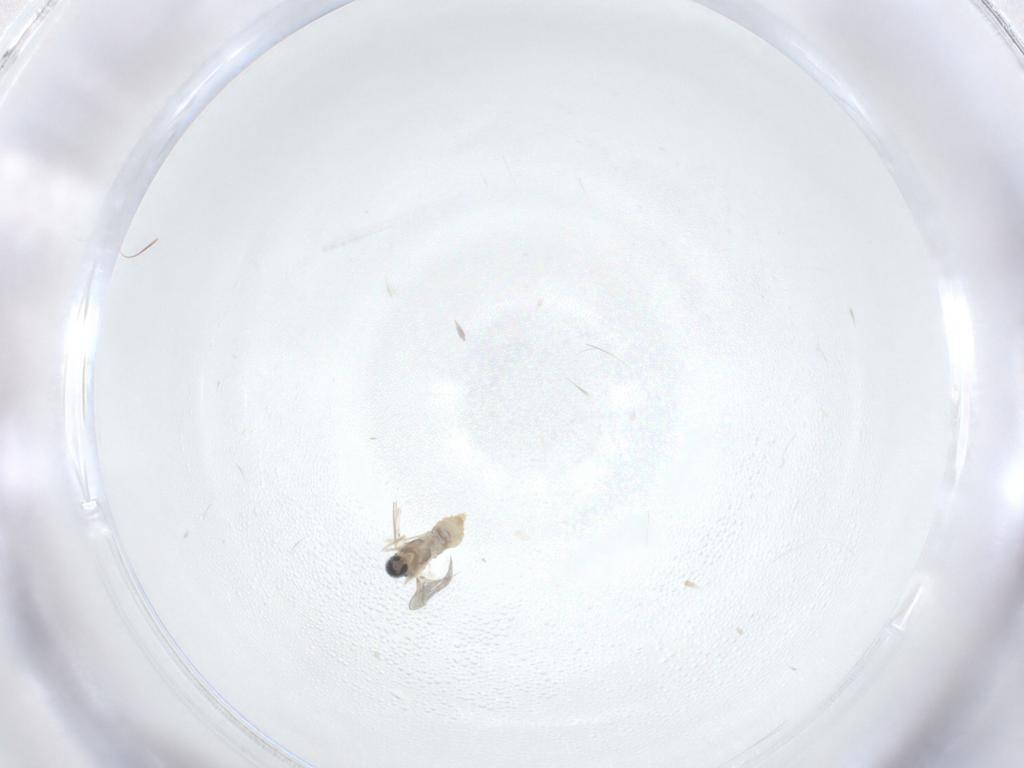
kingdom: Animalia
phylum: Arthropoda
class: Insecta
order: Diptera
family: Cecidomyiidae
